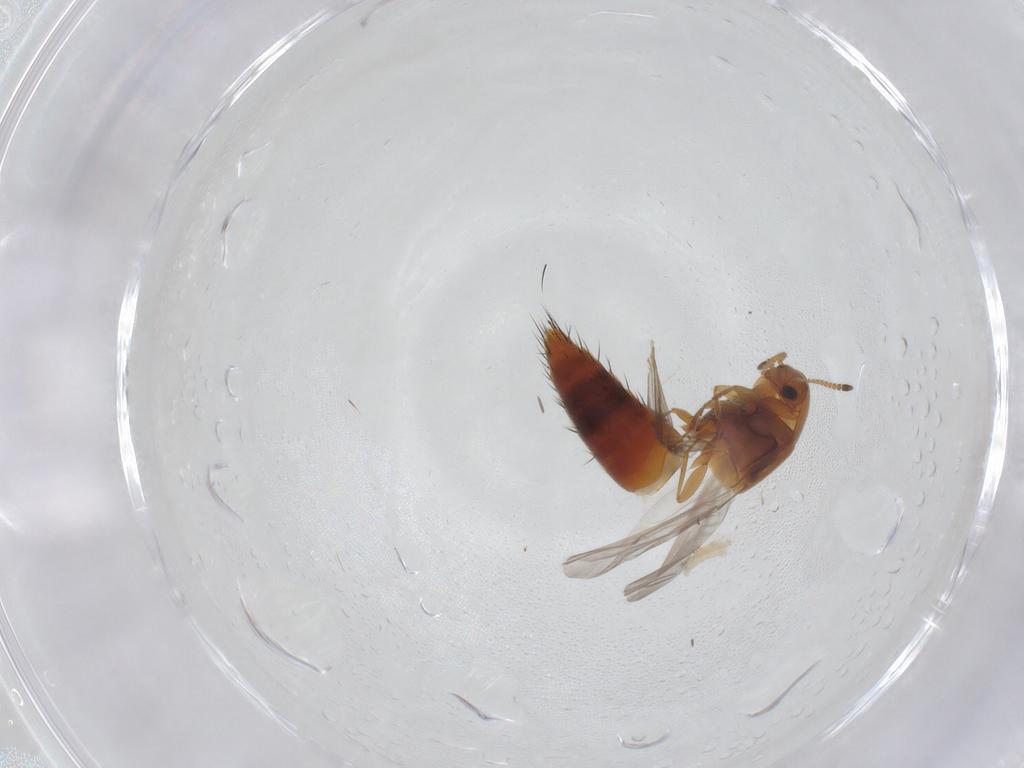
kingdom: Animalia
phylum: Arthropoda
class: Insecta
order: Coleoptera
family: Staphylinidae
